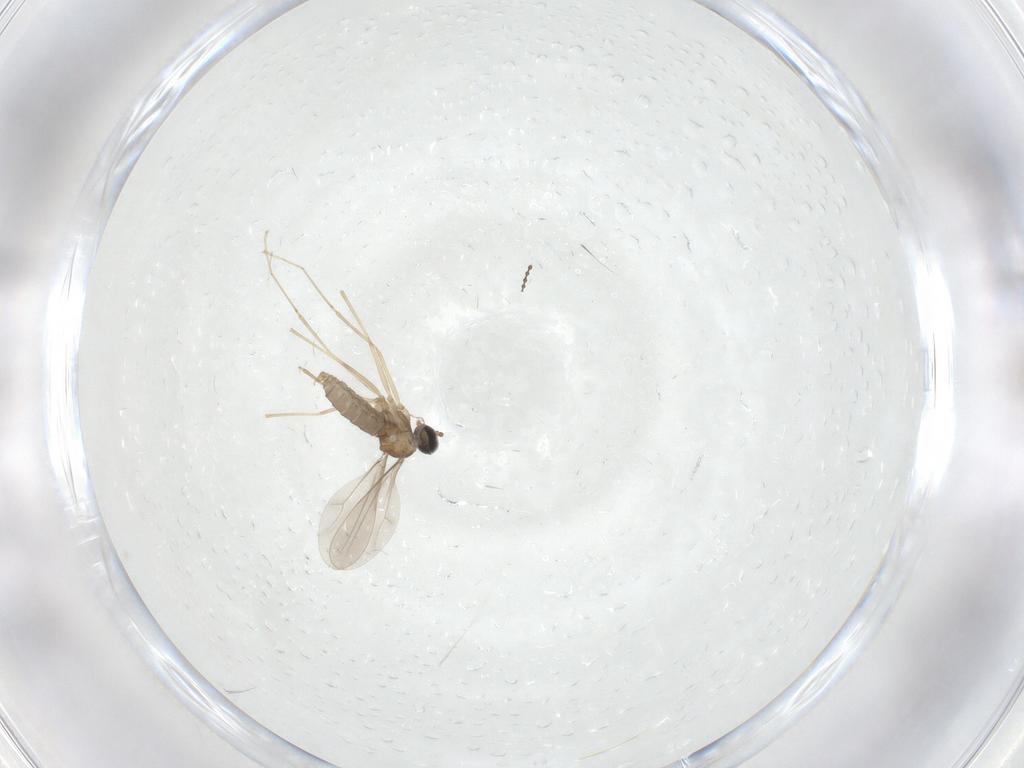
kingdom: Animalia
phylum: Arthropoda
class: Insecta
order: Diptera
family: Cecidomyiidae
